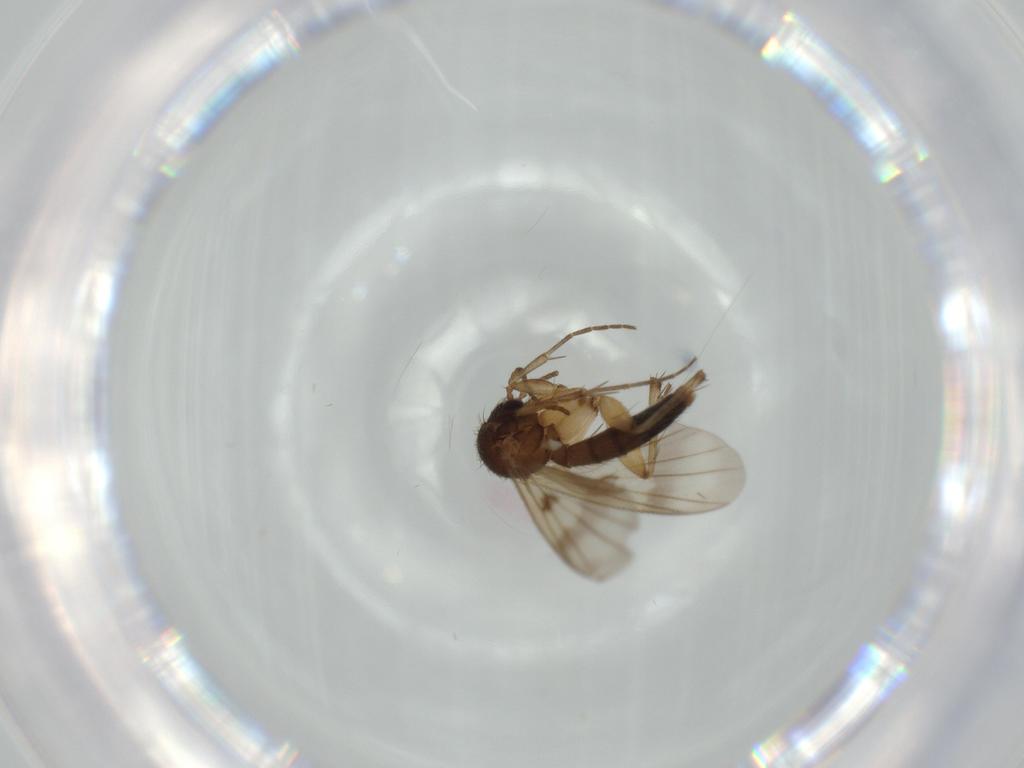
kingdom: Animalia
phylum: Arthropoda
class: Insecta
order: Diptera
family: Muscidae
